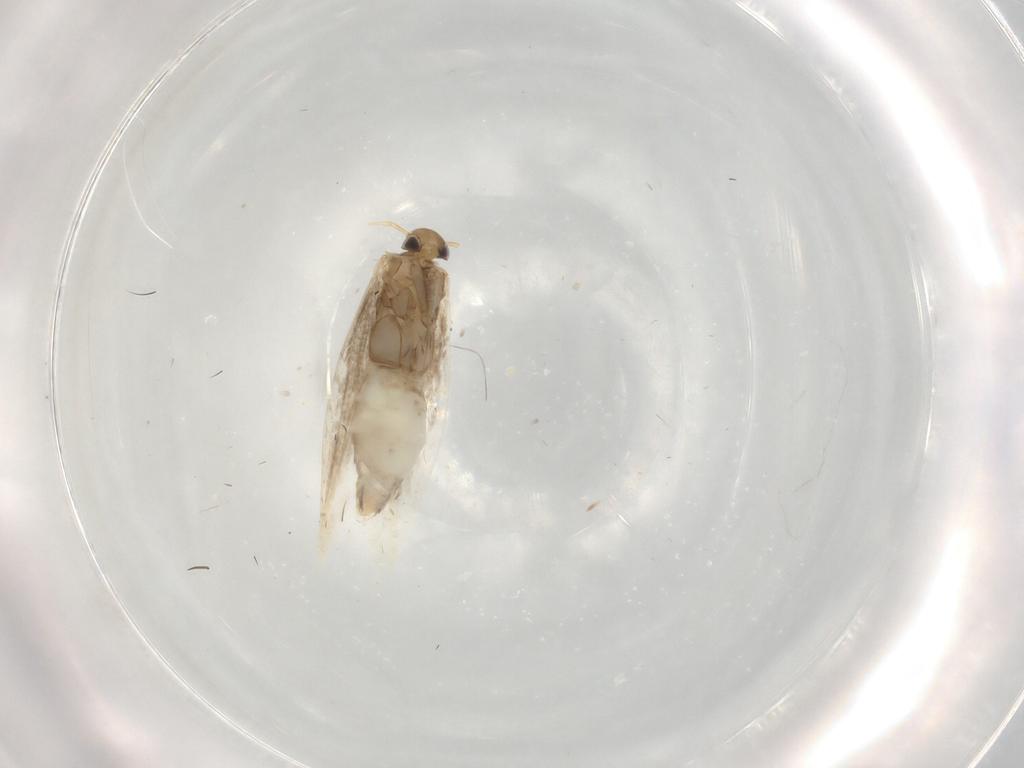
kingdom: Animalia
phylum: Arthropoda
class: Insecta
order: Lepidoptera
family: Gracillariidae
